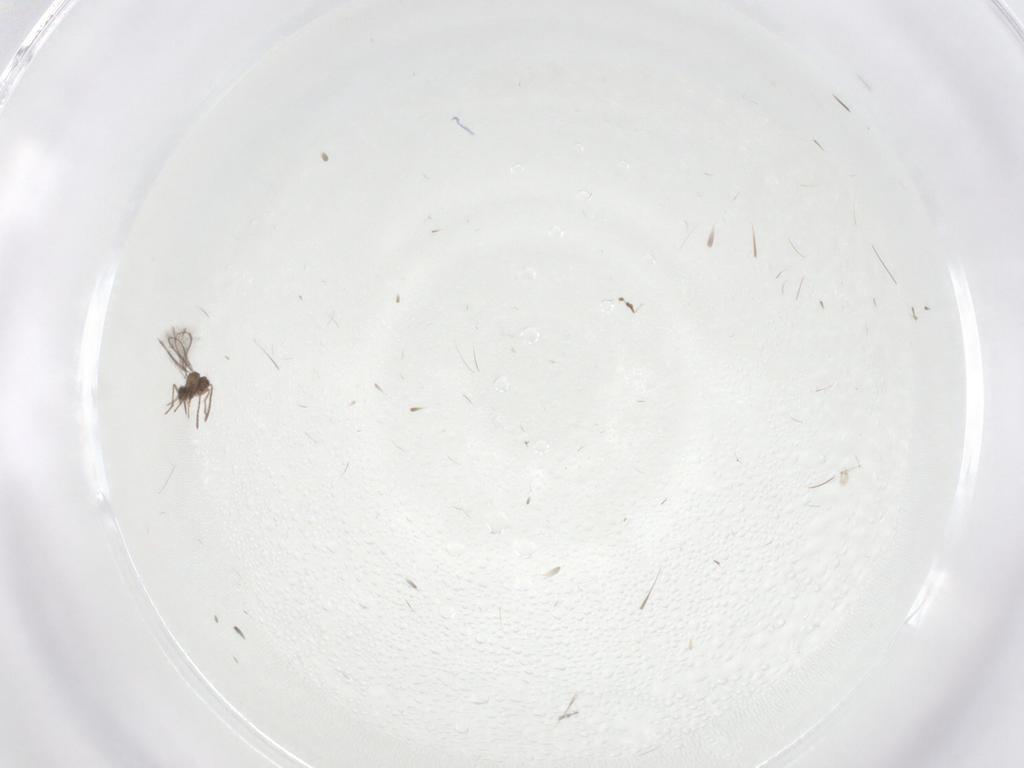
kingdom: Animalia
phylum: Arthropoda
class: Insecta
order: Hymenoptera
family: Mymaridae
